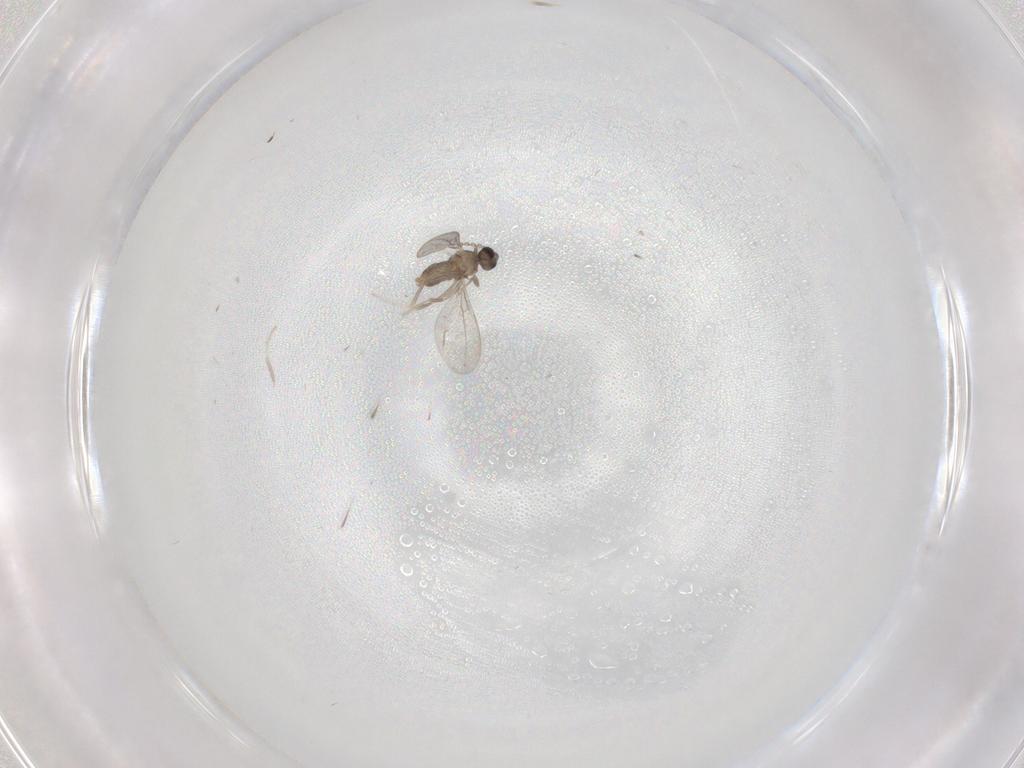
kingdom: Animalia
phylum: Arthropoda
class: Insecta
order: Diptera
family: Cecidomyiidae
